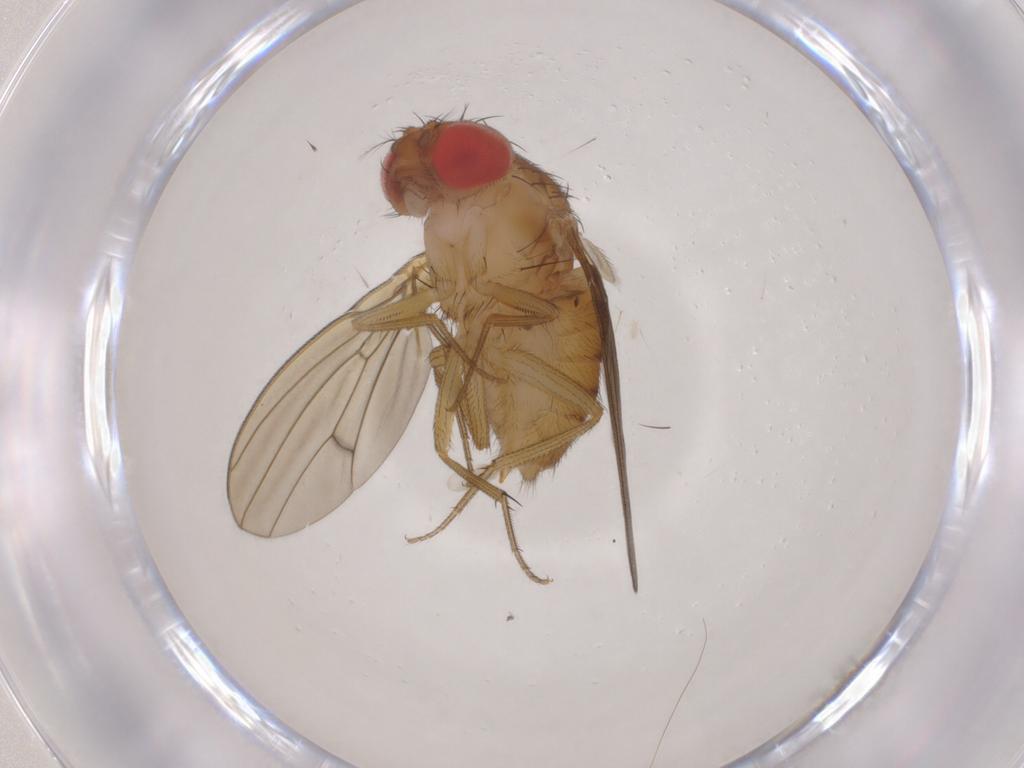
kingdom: Animalia
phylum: Arthropoda
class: Insecta
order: Diptera
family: Drosophilidae
